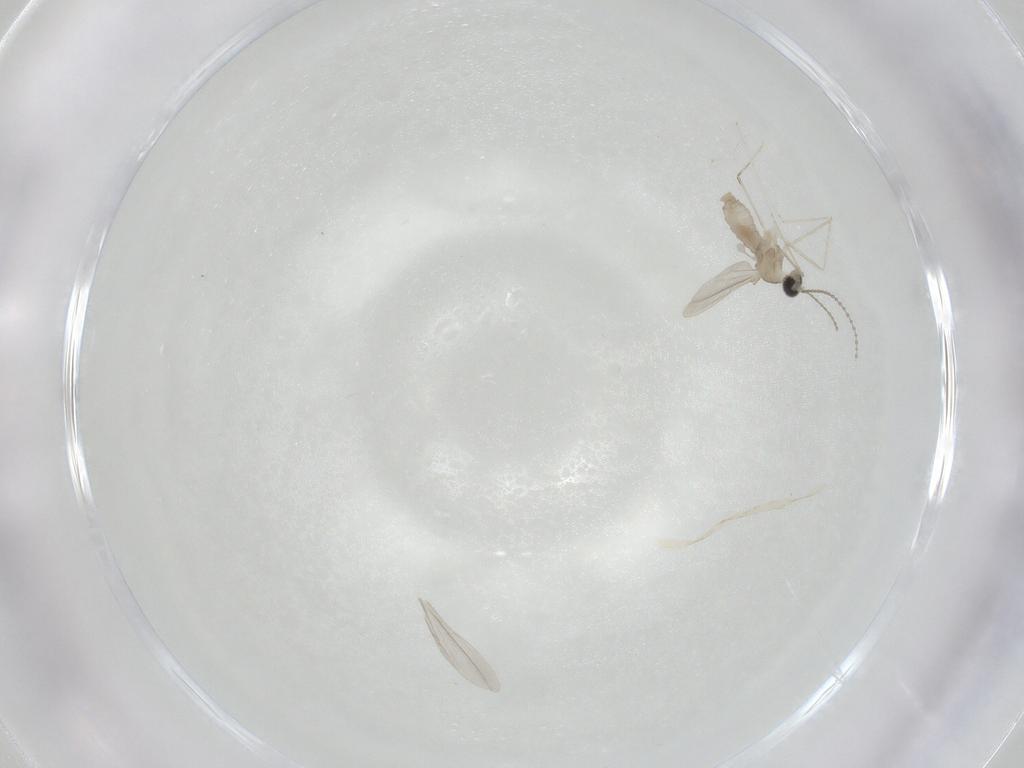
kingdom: Animalia
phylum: Arthropoda
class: Insecta
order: Diptera
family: Cecidomyiidae
